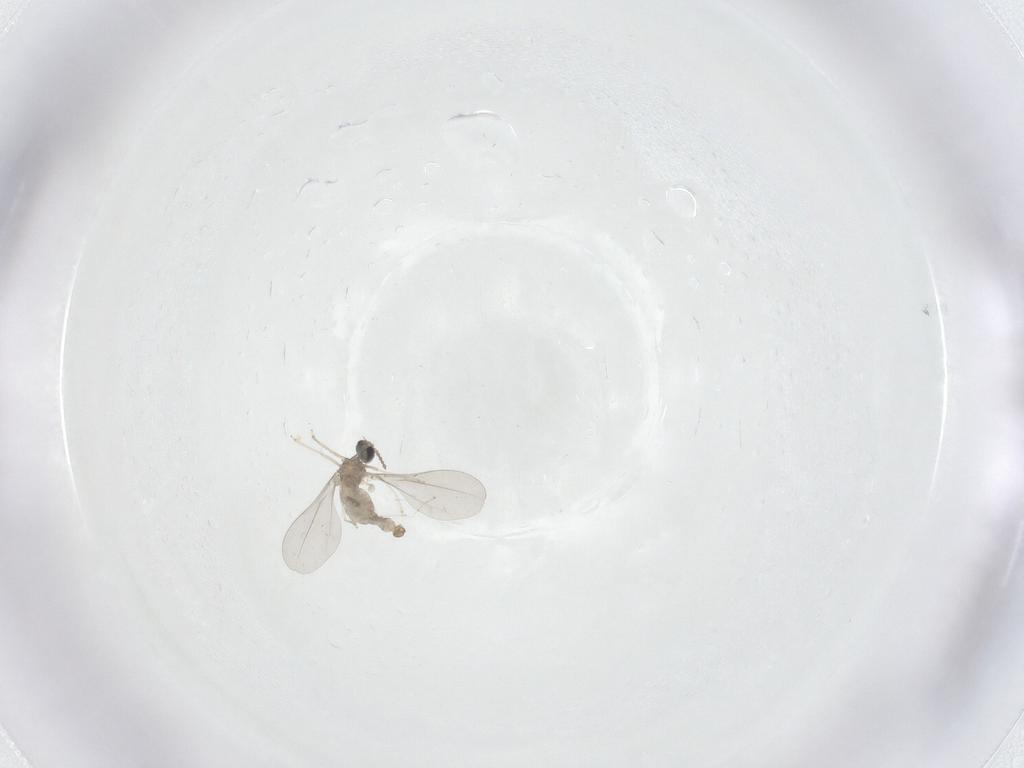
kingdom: Animalia
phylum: Arthropoda
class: Insecta
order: Diptera
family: Cecidomyiidae
